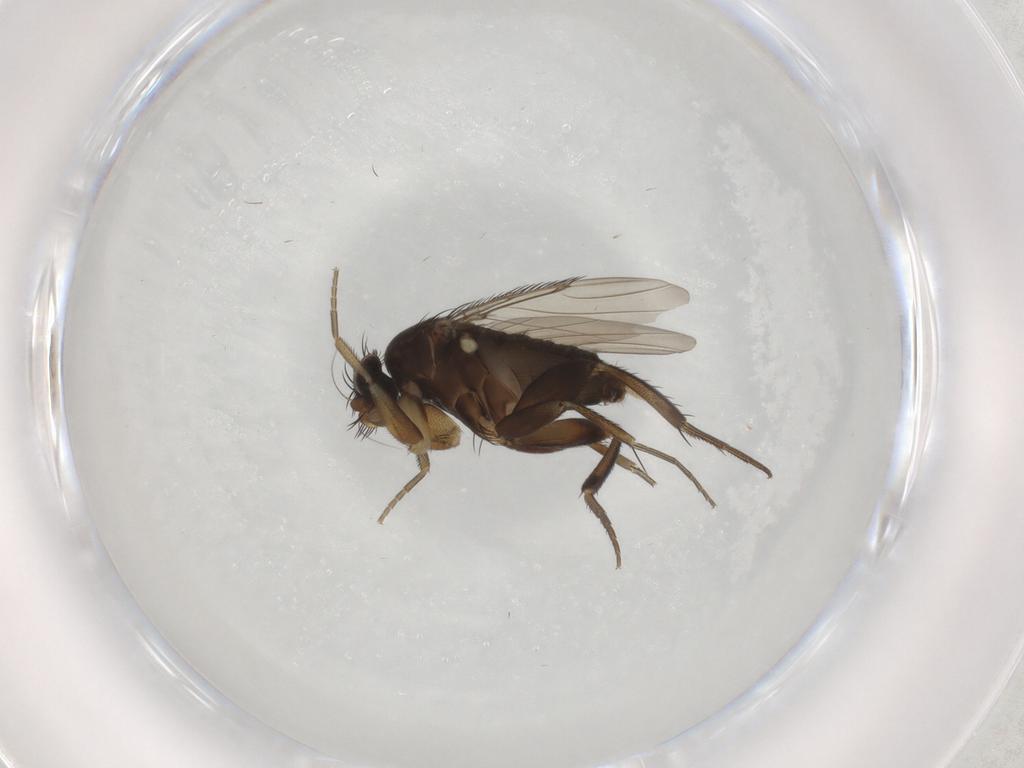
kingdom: Animalia
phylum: Arthropoda
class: Insecta
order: Diptera
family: Phoridae
